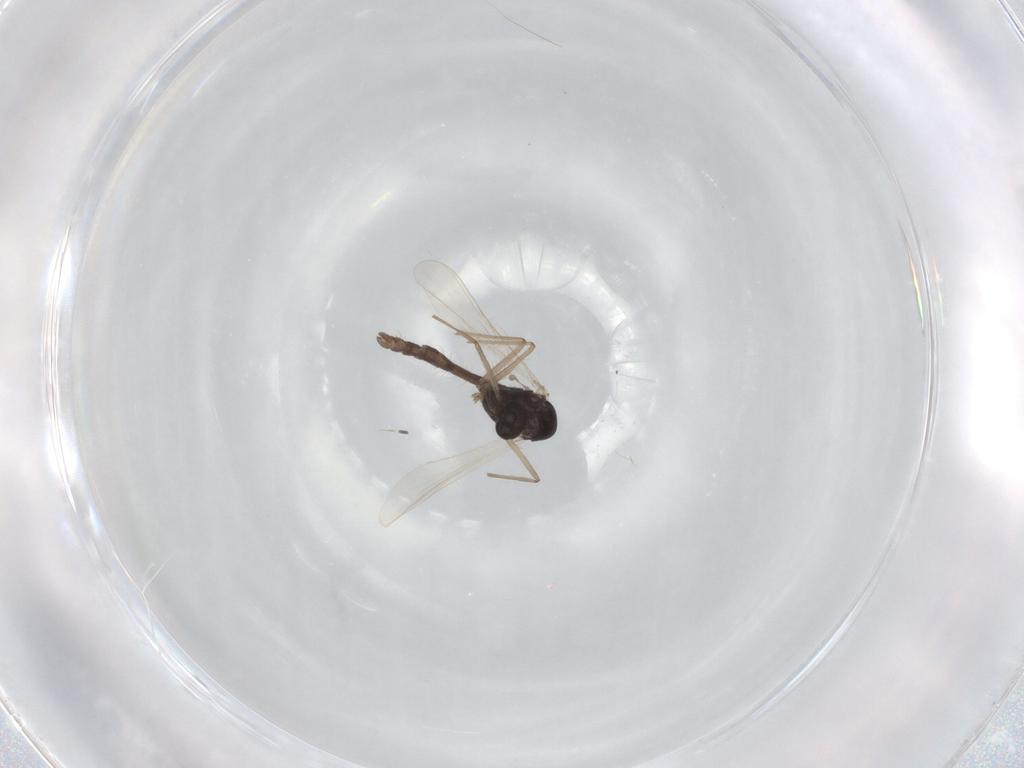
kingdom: Animalia
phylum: Arthropoda
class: Insecta
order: Diptera
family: Chironomidae
